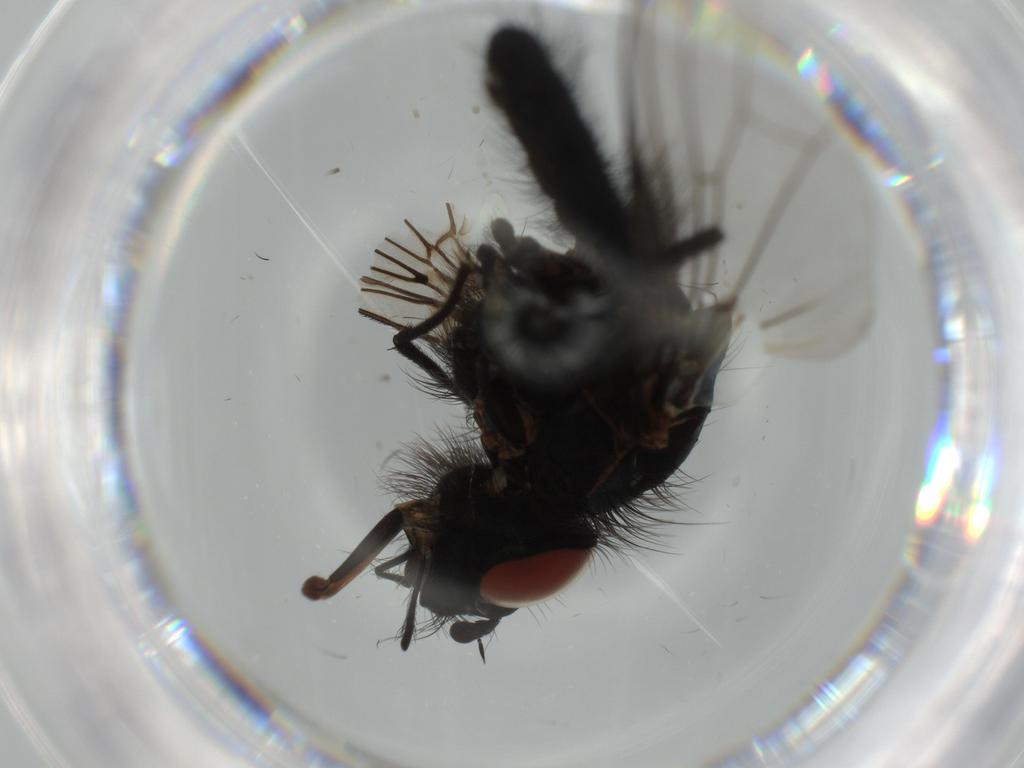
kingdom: Animalia
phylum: Arthropoda
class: Insecta
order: Diptera
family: Anthomyiidae
